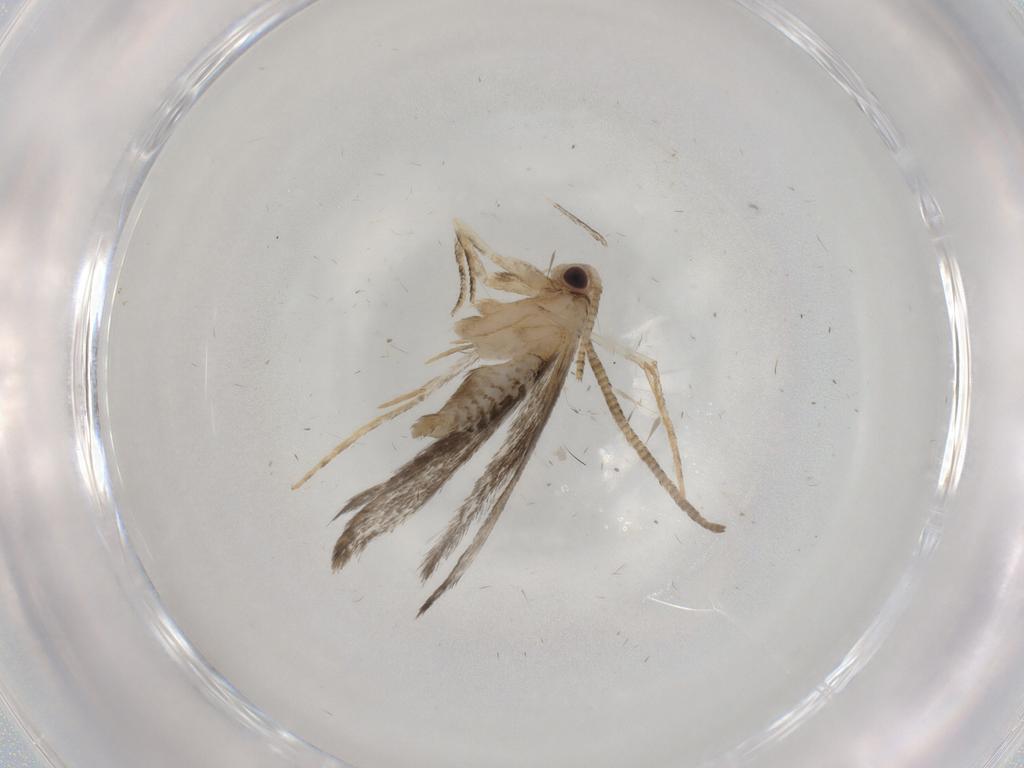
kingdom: Animalia
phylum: Arthropoda
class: Insecta
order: Lepidoptera
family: Tineidae
